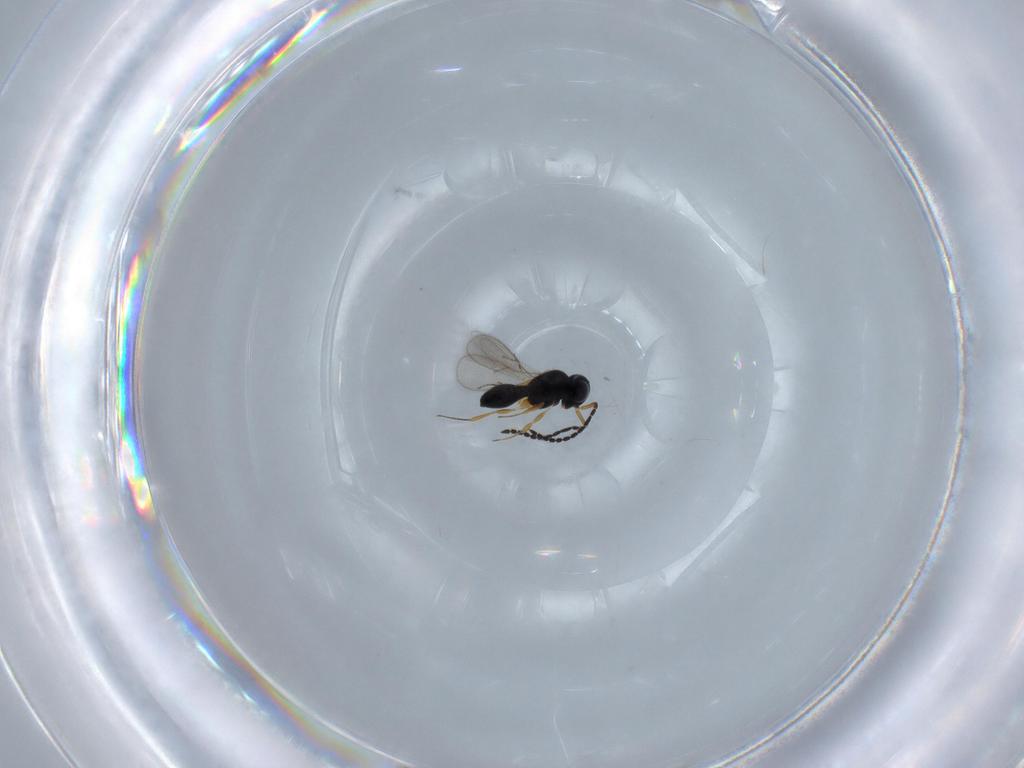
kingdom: Animalia
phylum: Arthropoda
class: Insecta
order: Hymenoptera
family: Scelionidae
